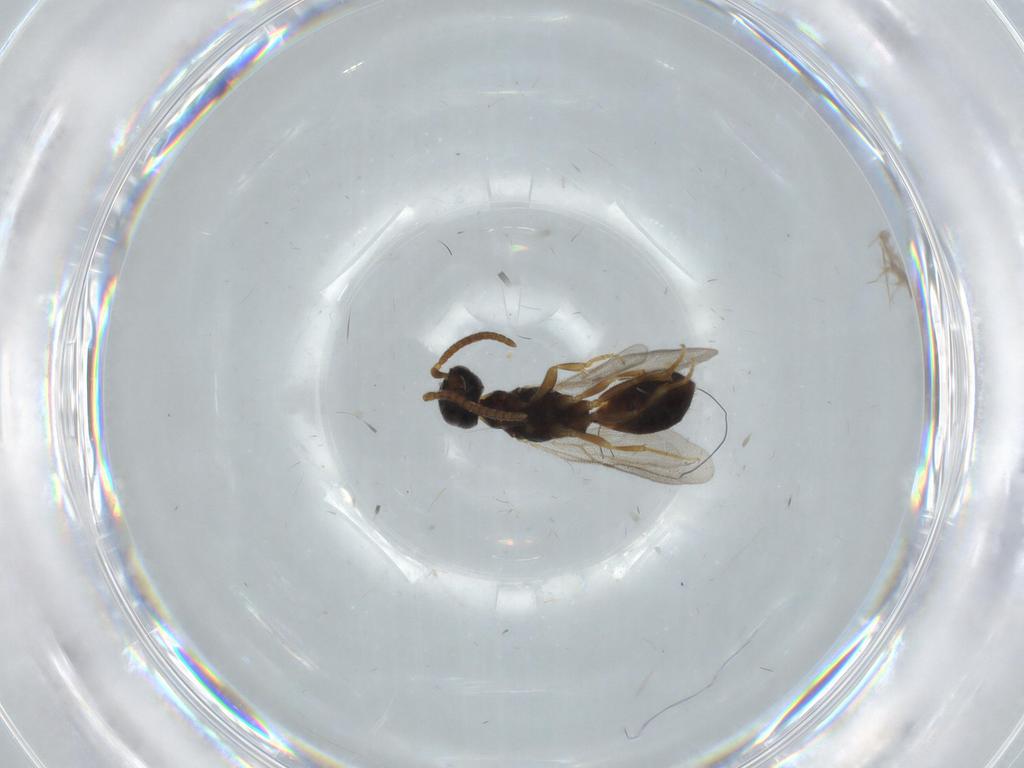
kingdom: Animalia
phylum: Arthropoda
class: Insecta
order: Hymenoptera
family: Bethylidae
